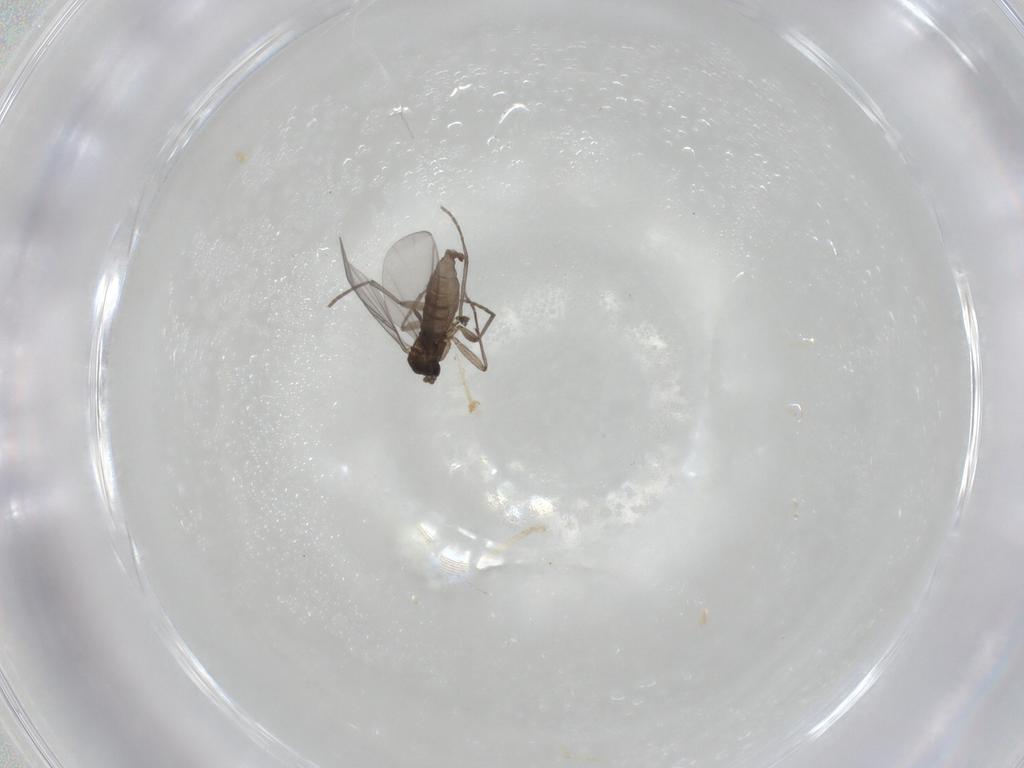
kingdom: Animalia
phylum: Arthropoda
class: Insecta
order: Diptera
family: Sciaridae
